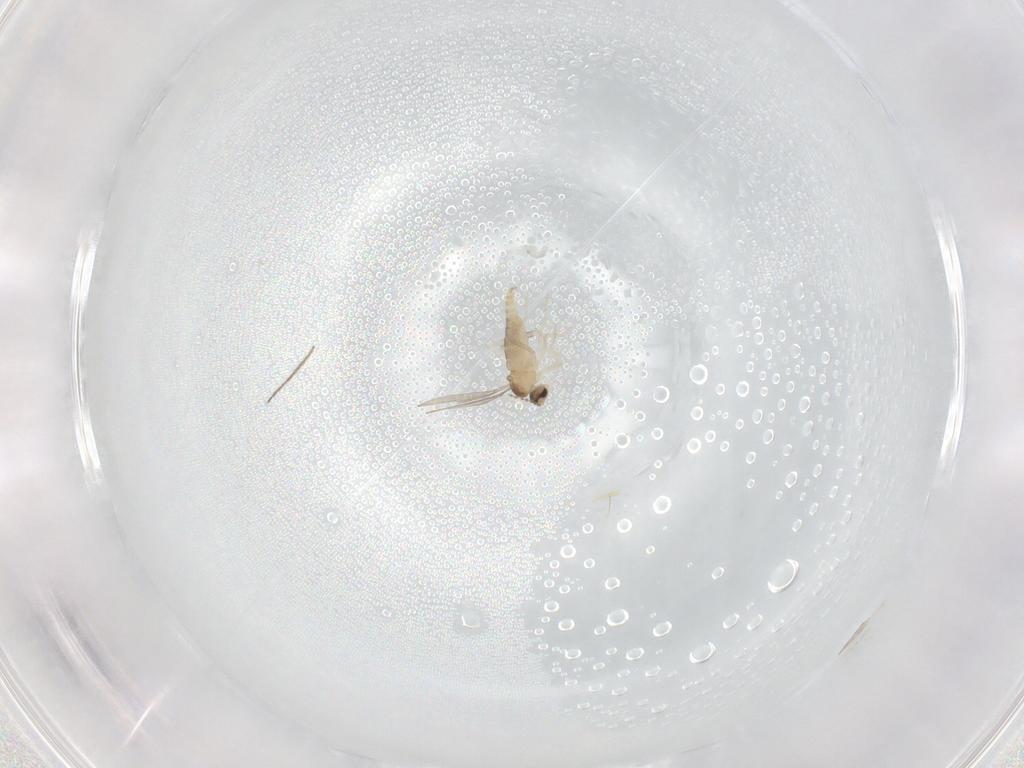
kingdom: Animalia
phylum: Arthropoda
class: Insecta
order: Diptera
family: Cecidomyiidae
